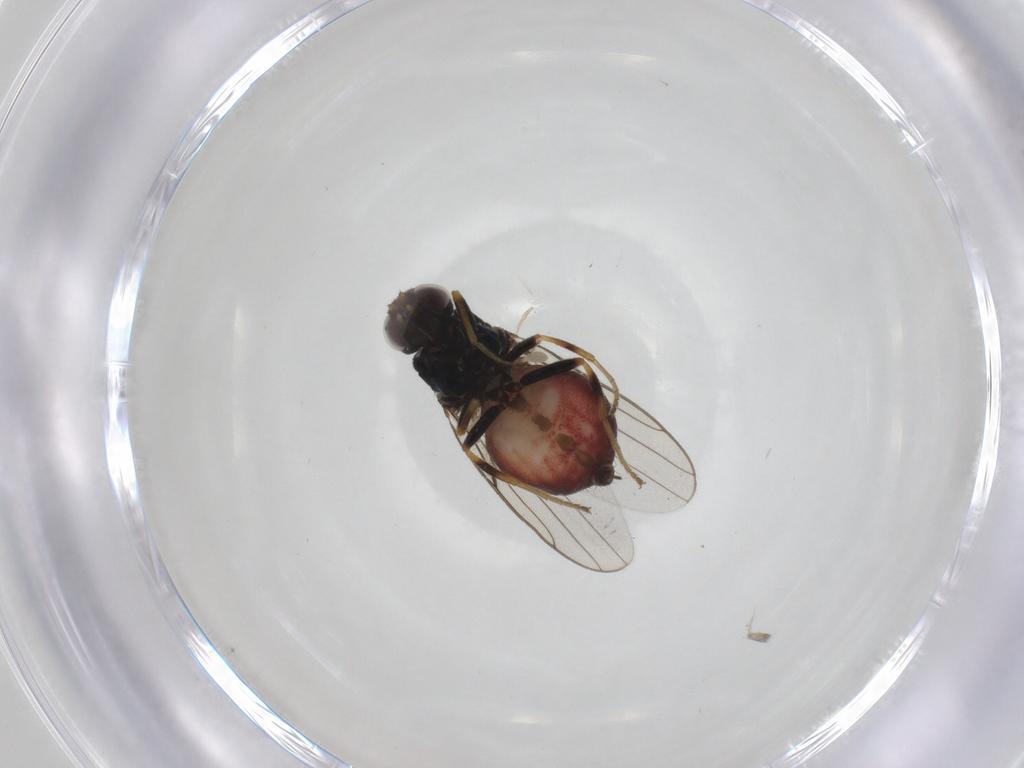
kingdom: Animalia
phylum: Arthropoda
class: Insecta
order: Diptera
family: Chloropidae
